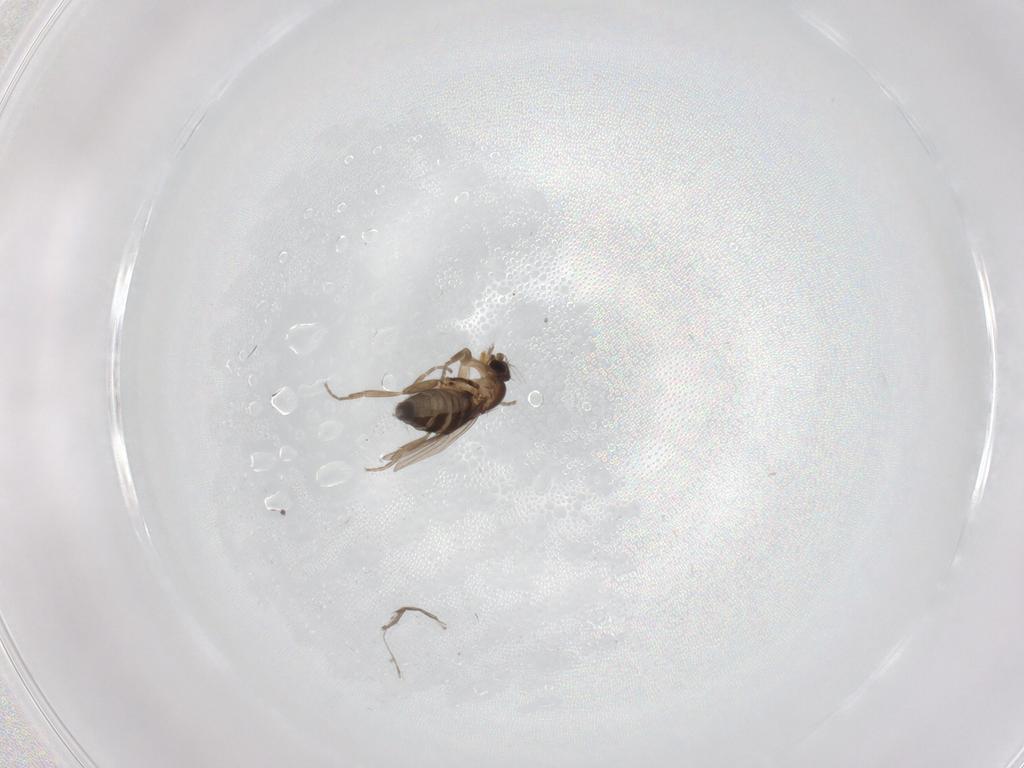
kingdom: Animalia
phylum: Arthropoda
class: Insecta
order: Diptera
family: Phoridae
